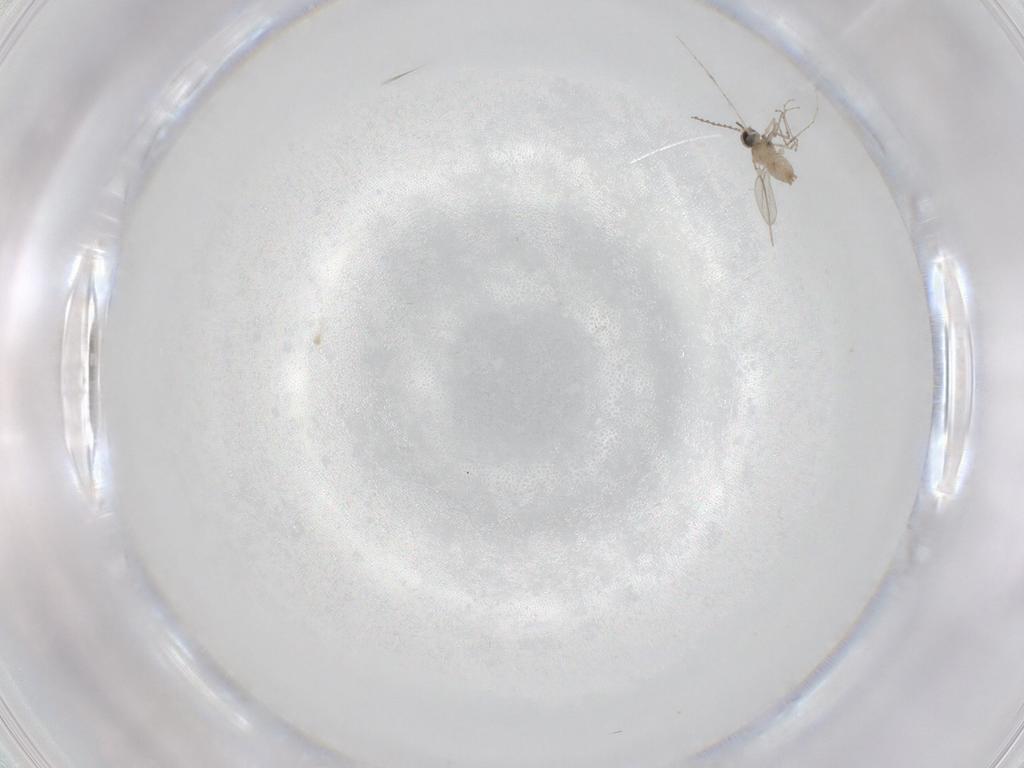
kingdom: Animalia
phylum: Arthropoda
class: Insecta
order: Diptera
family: Cecidomyiidae
